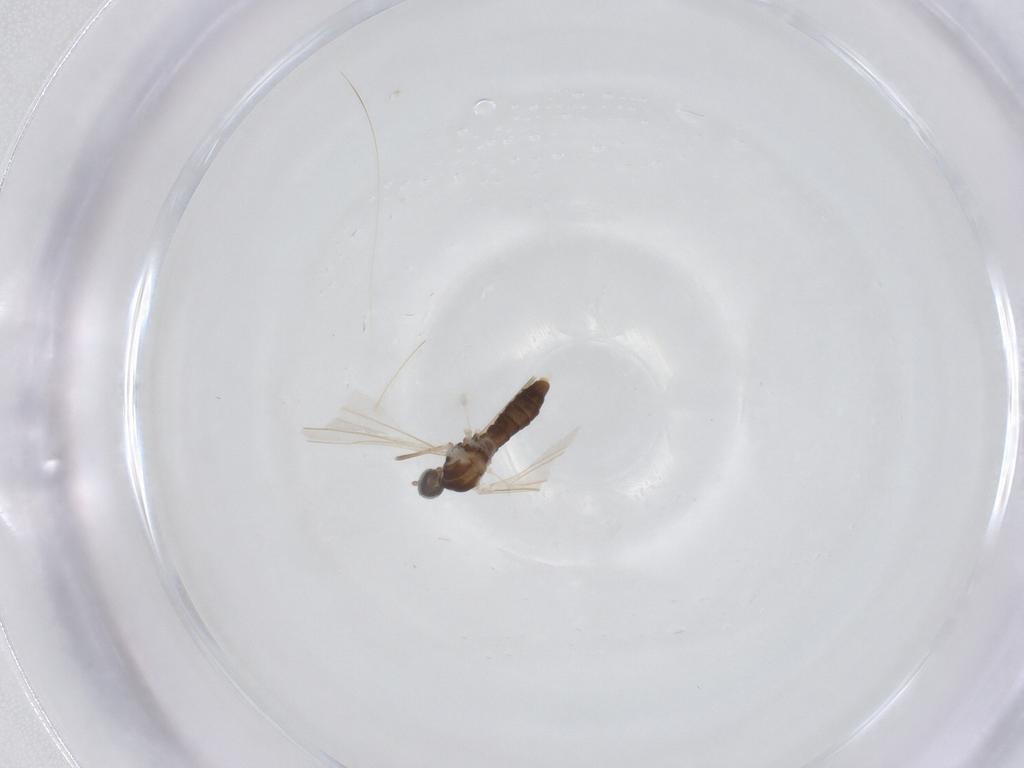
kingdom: Animalia
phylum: Arthropoda
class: Insecta
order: Diptera
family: Cecidomyiidae
